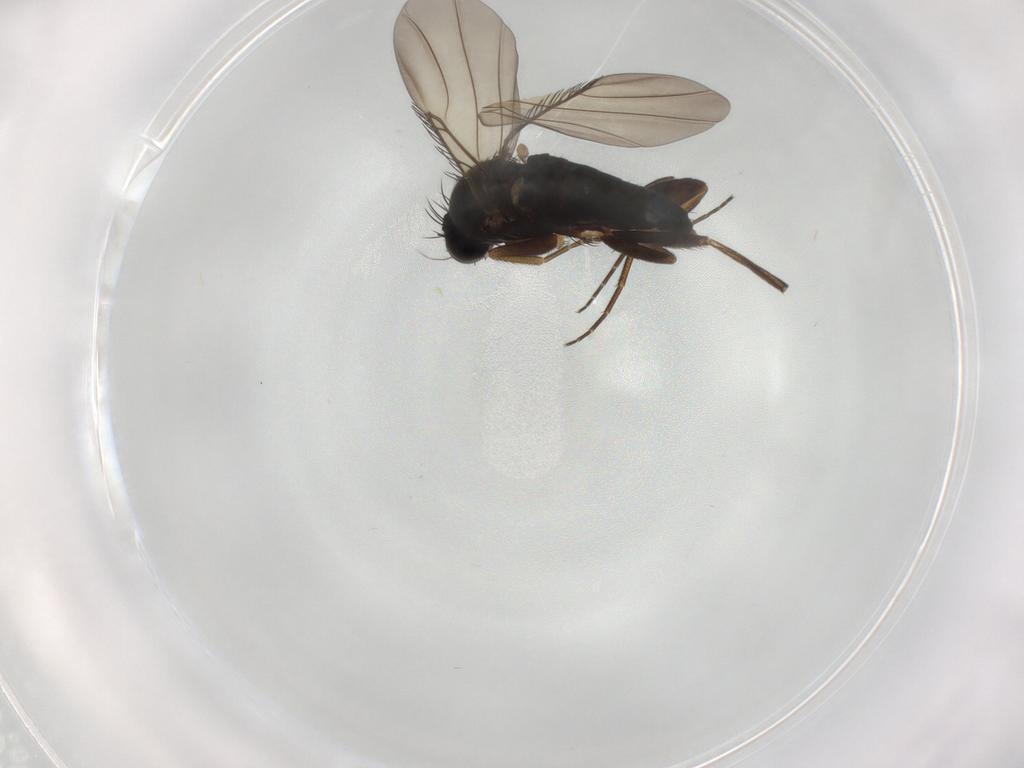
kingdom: Animalia
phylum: Arthropoda
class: Insecta
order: Diptera
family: Phoridae
